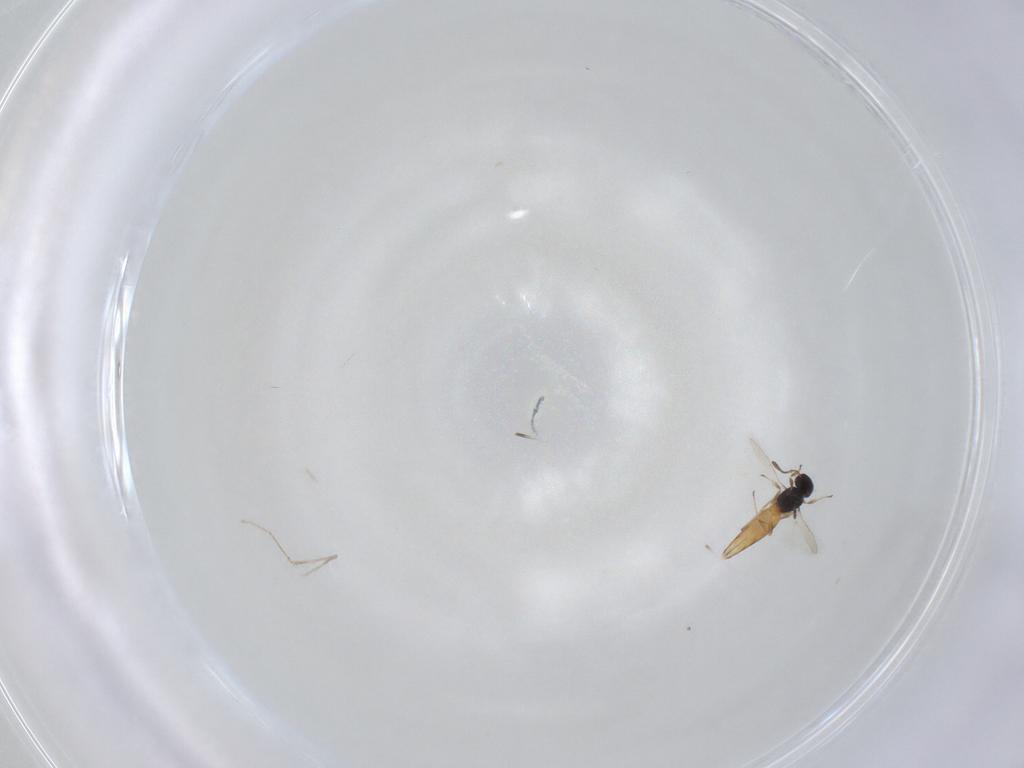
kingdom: Animalia
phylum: Arthropoda
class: Insecta
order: Hymenoptera
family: Scelionidae
